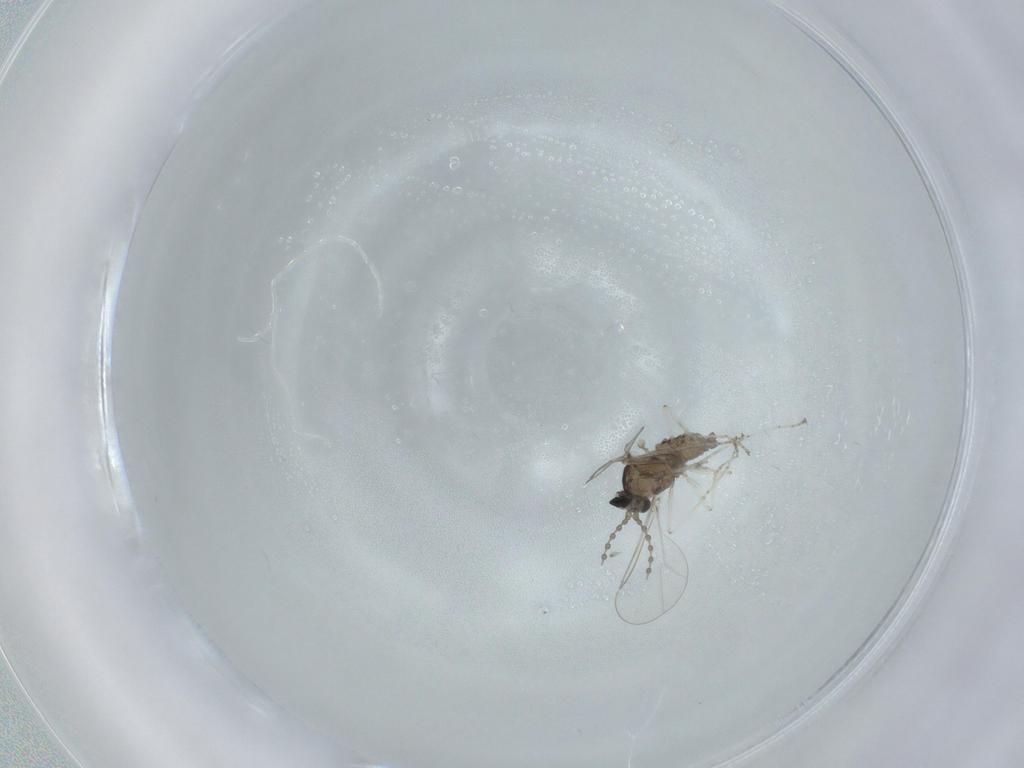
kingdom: Animalia
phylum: Arthropoda
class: Insecta
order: Diptera
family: Cecidomyiidae
